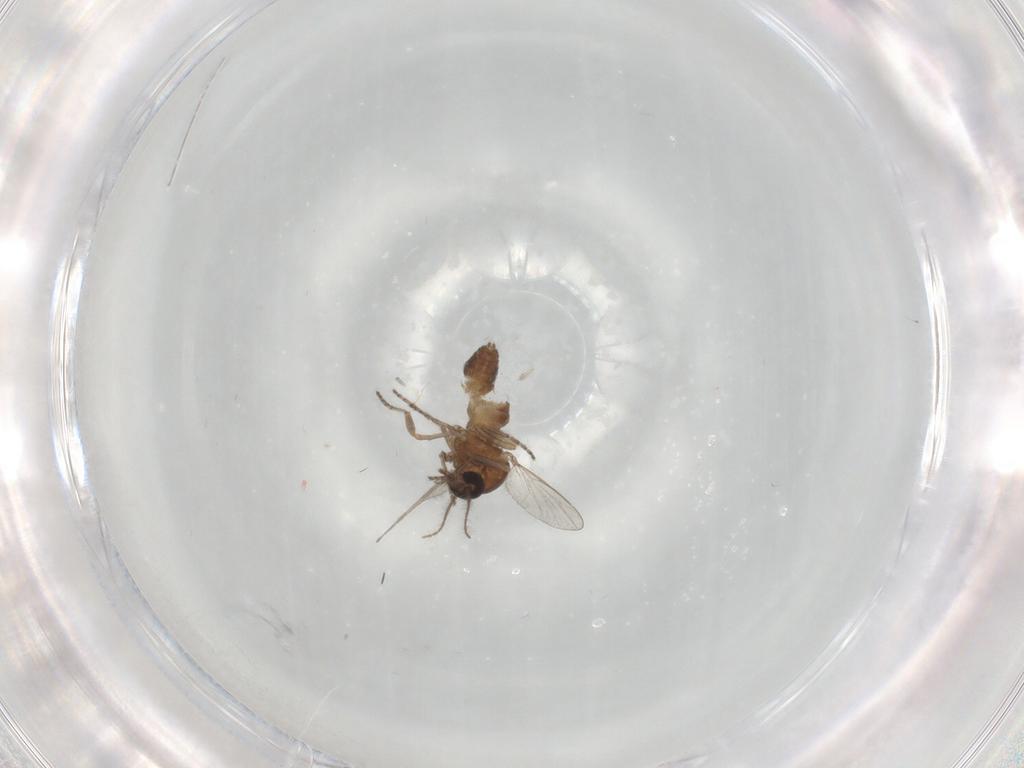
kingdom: Animalia
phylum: Arthropoda
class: Insecta
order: Diptera
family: Ceratopogonidae
